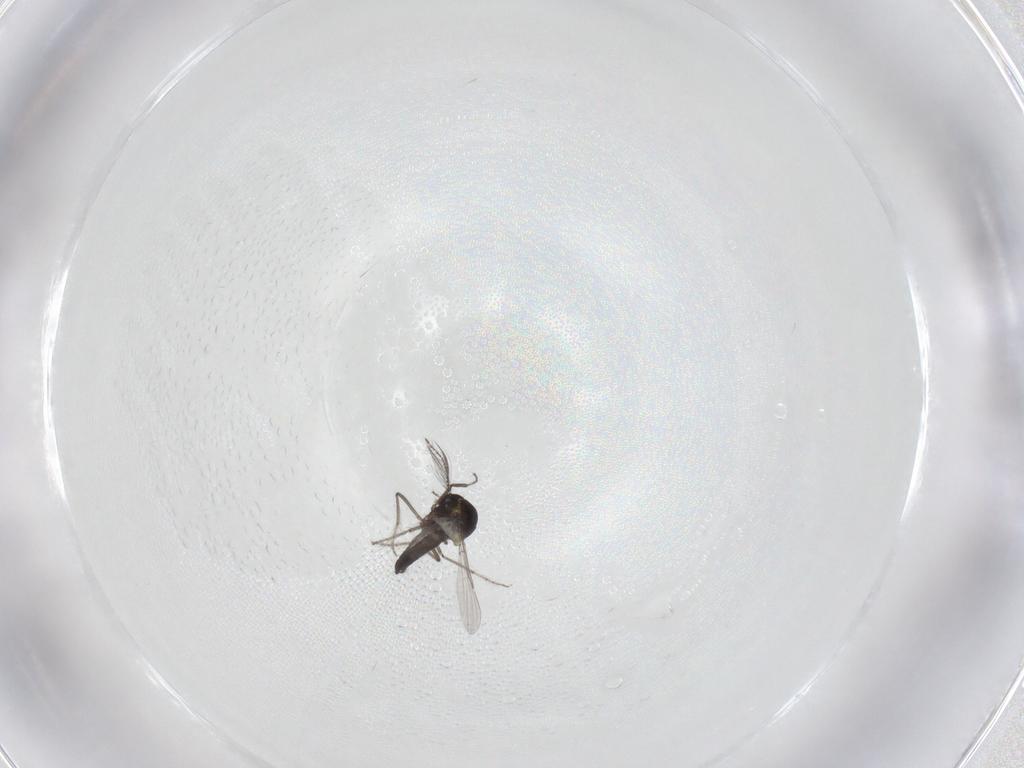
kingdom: Animalia
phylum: Arthropoda
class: Insecta
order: Diptera
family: Ceratopogonidae
